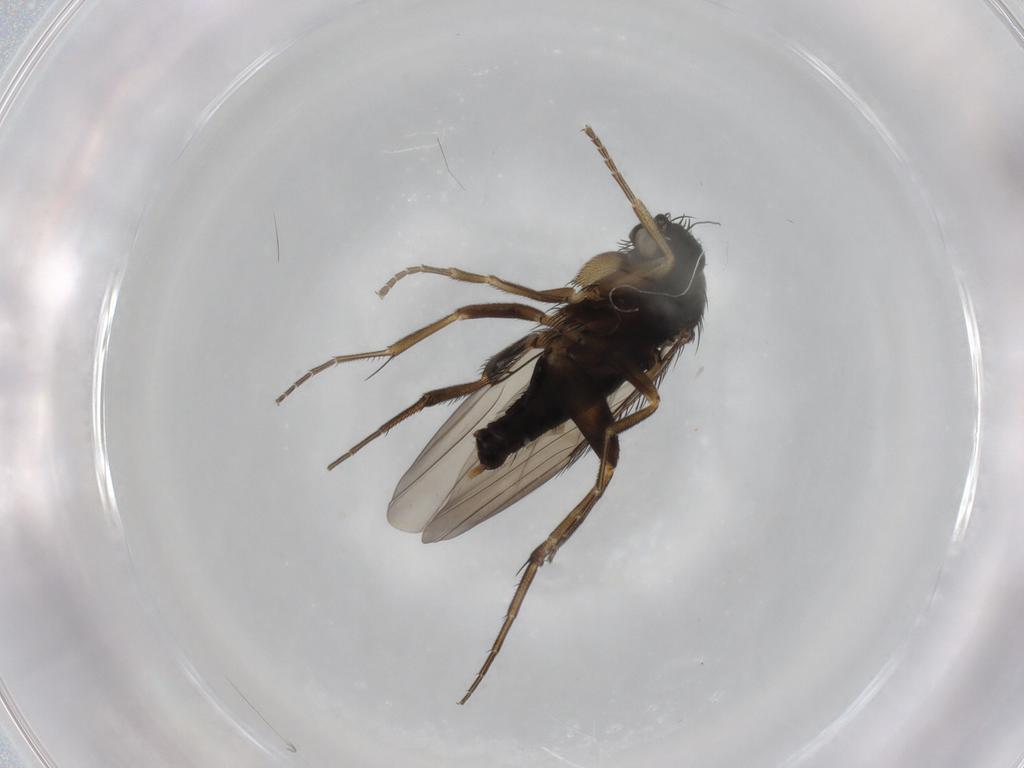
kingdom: Animalia
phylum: Arthropoda
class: Insecta
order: Diptera
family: Phoridae
